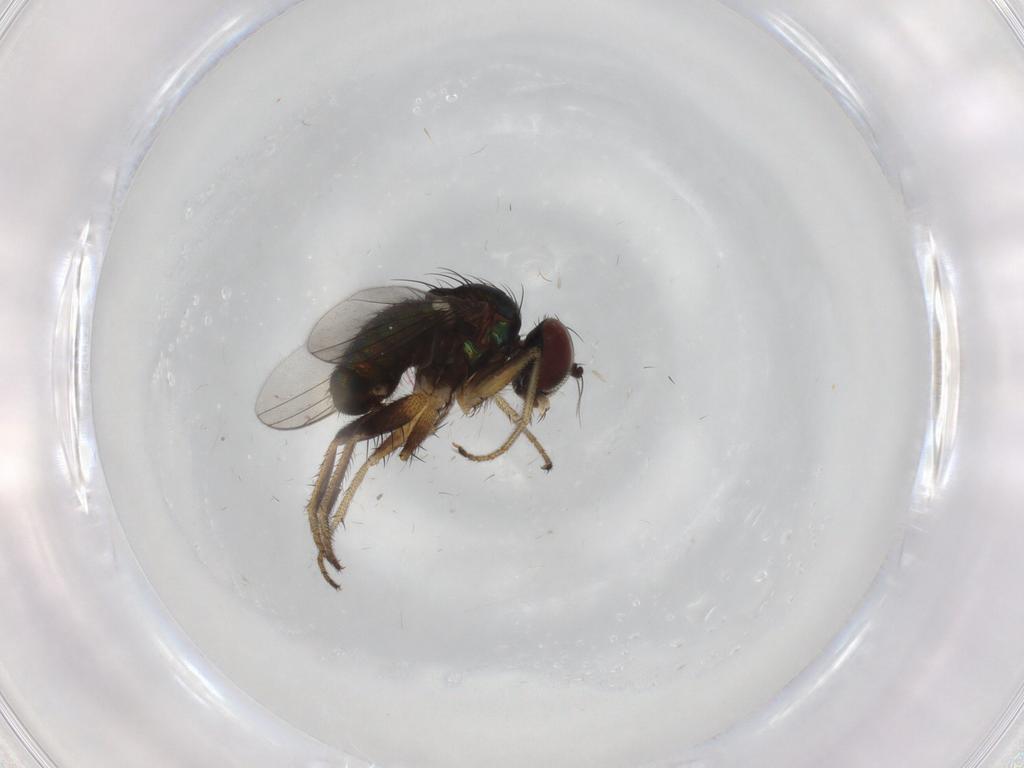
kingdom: Animalia
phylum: Arthropoda
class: Insecta
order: Diptera
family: Dolichopodidae
